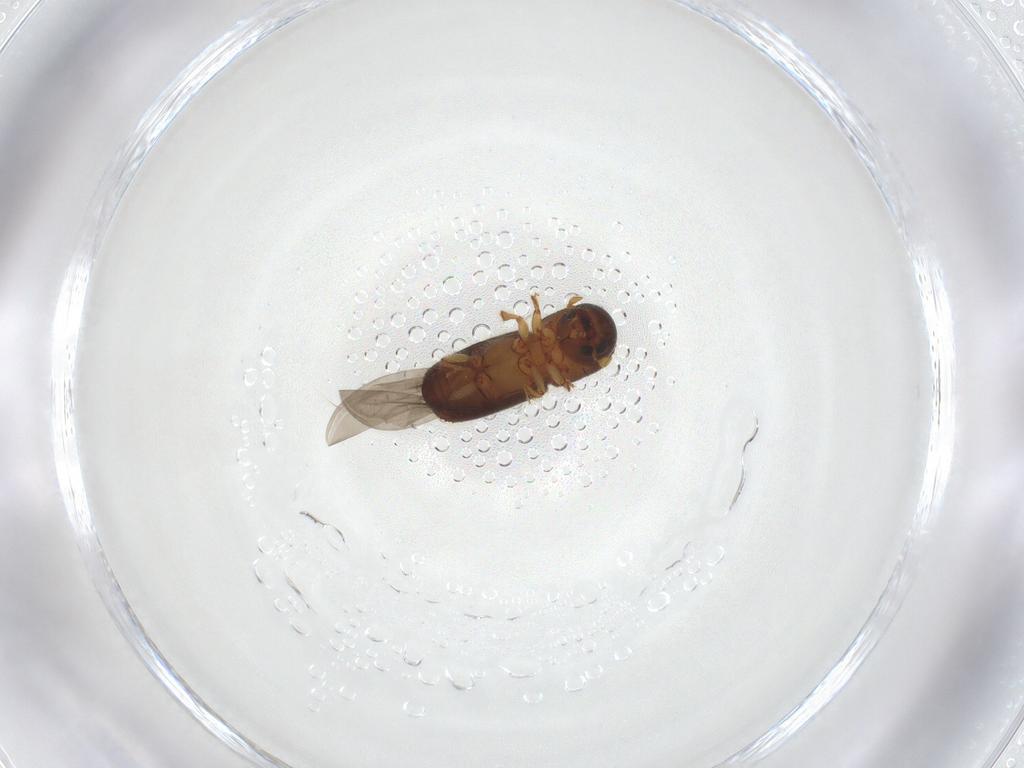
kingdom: Animalia
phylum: Arthropoda
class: Insecta
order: Coleoptera
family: Curculionidae
